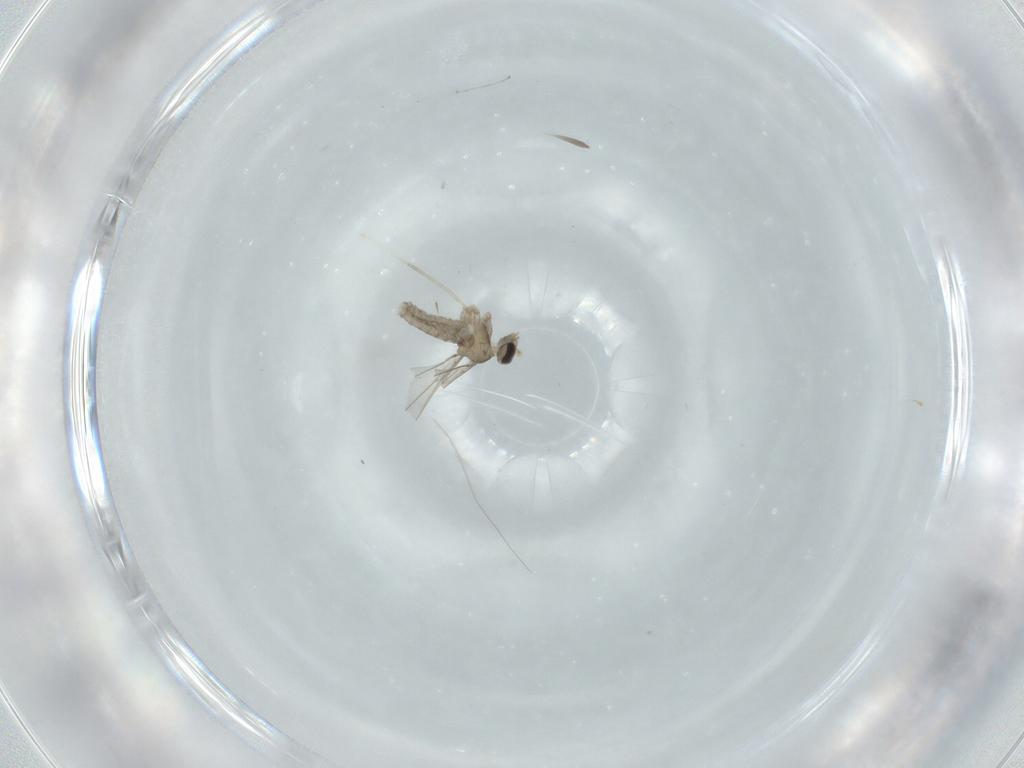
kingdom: Animalia
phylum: Arthropoda
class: Insecta
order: Diptera
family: Cecidomyiidae
